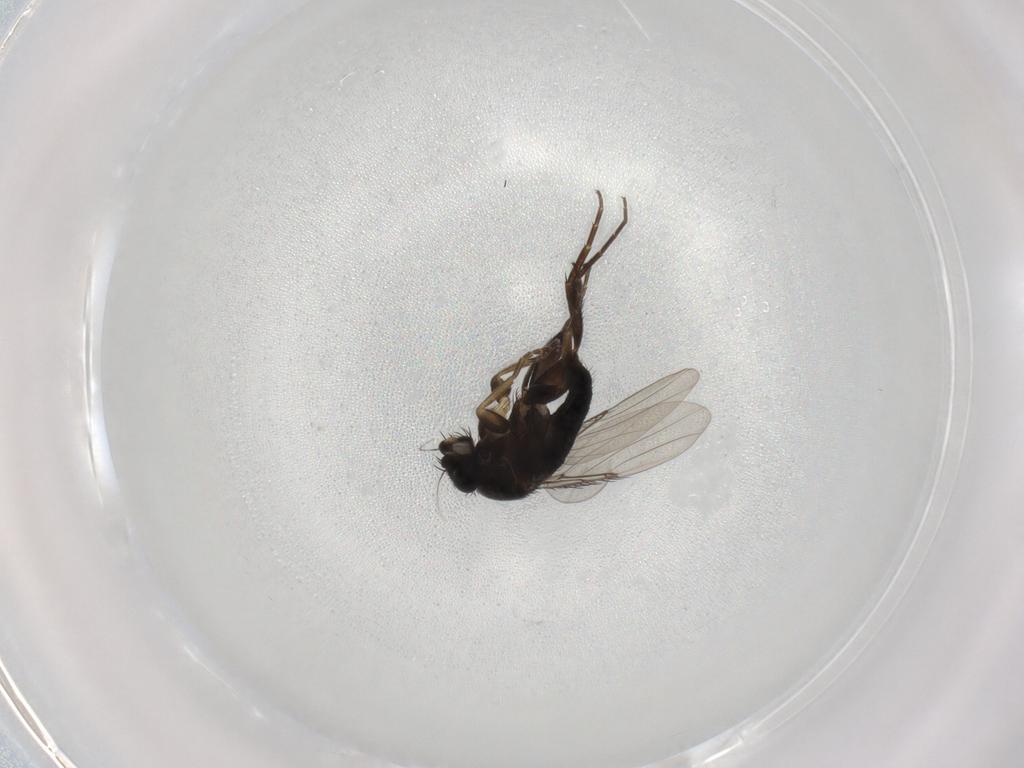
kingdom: Animalia
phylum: Arthropoda
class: Insecta
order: Diptera
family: Phoridae
